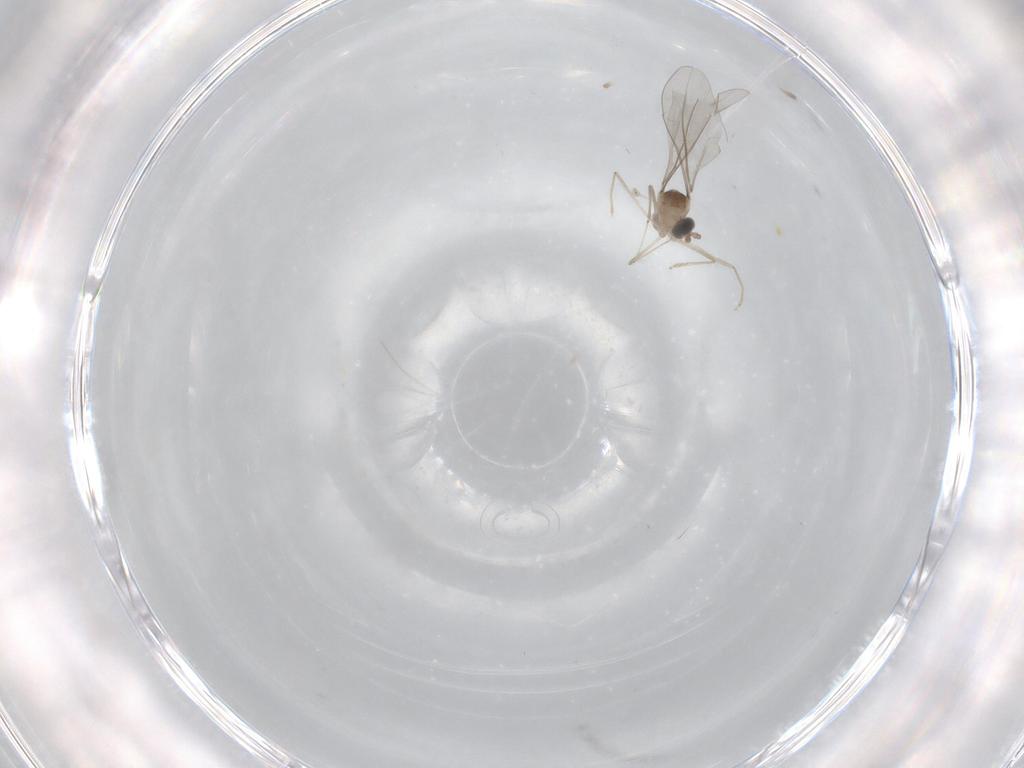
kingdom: Animalia
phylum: Arthropoda
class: Insecta
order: Diptera
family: Cecidomyiidae
